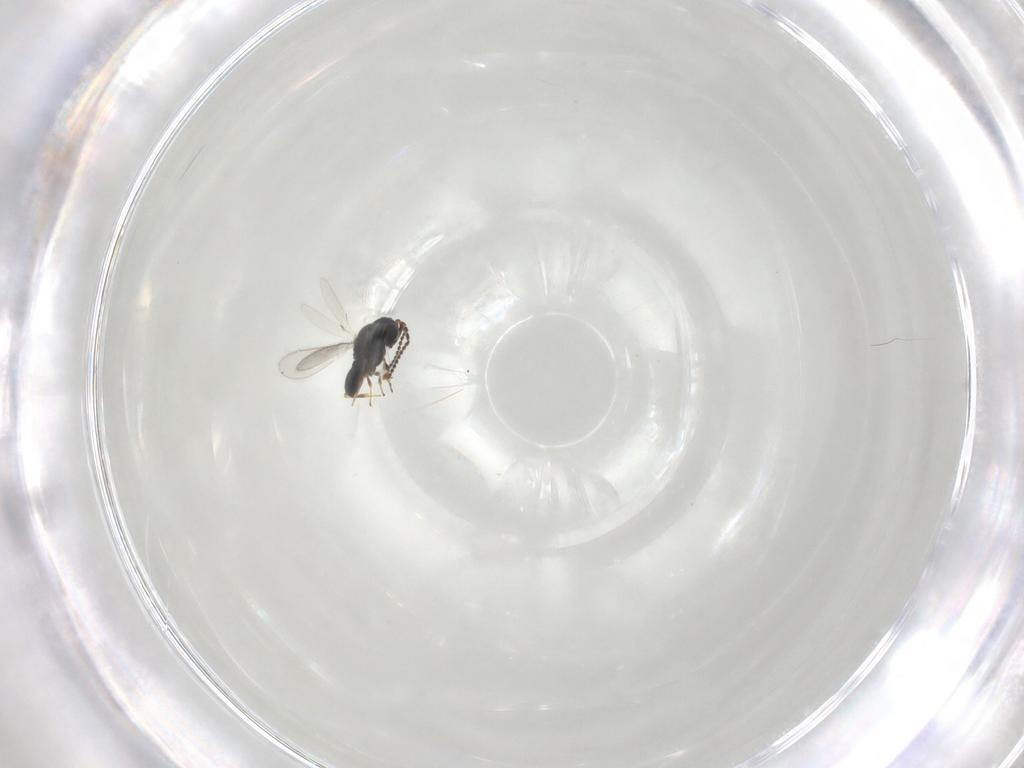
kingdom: Animalia
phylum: Arthropoda
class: Insecta
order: Hymenoptera
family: Scelionidae
